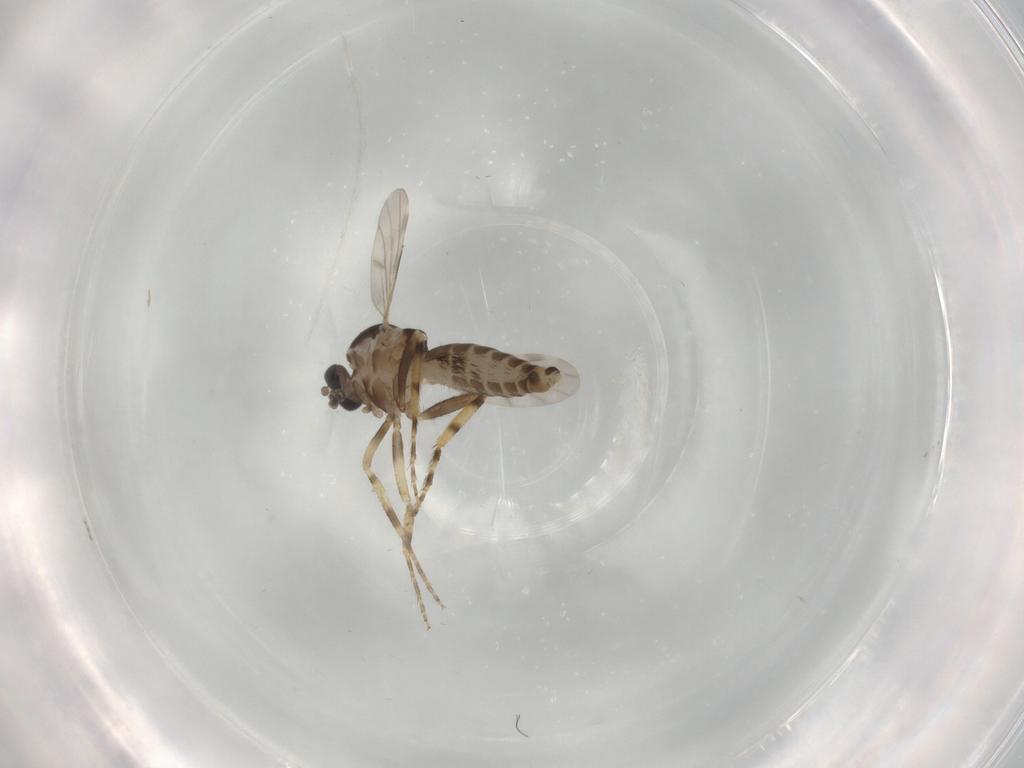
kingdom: Animalia
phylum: Arthropoda
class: Insecta
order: Diptera
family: Ceratopogonidae
